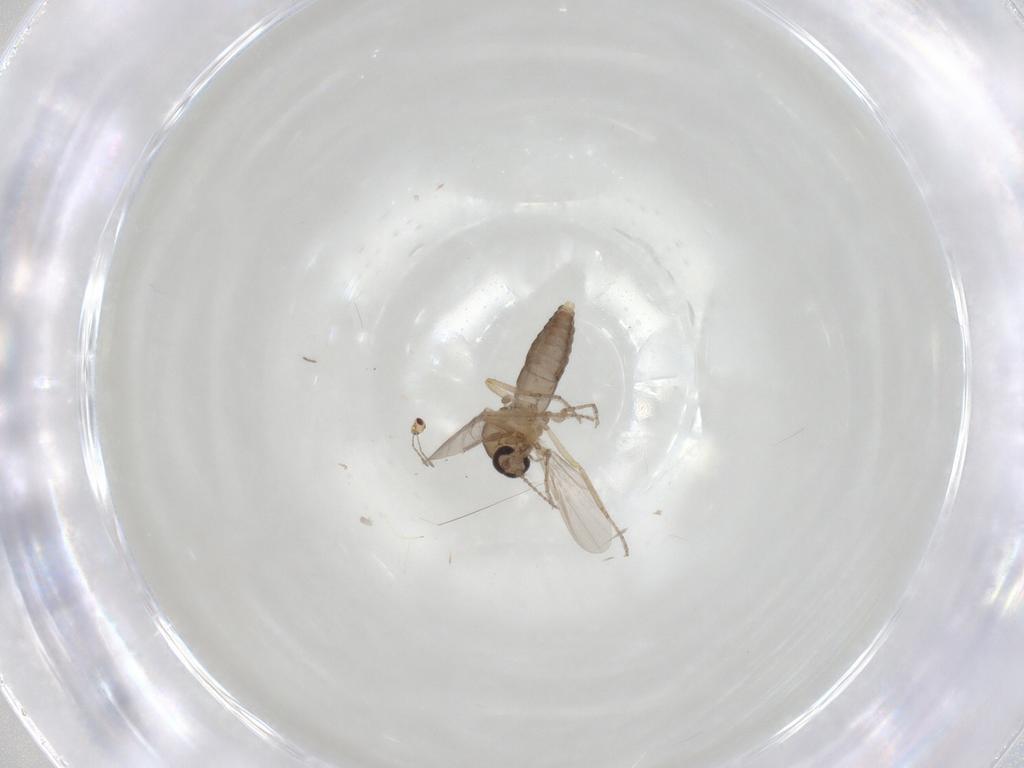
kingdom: Animalia
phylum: Arthropoda
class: Insecta
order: Diptera
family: Ceratopogonidae
